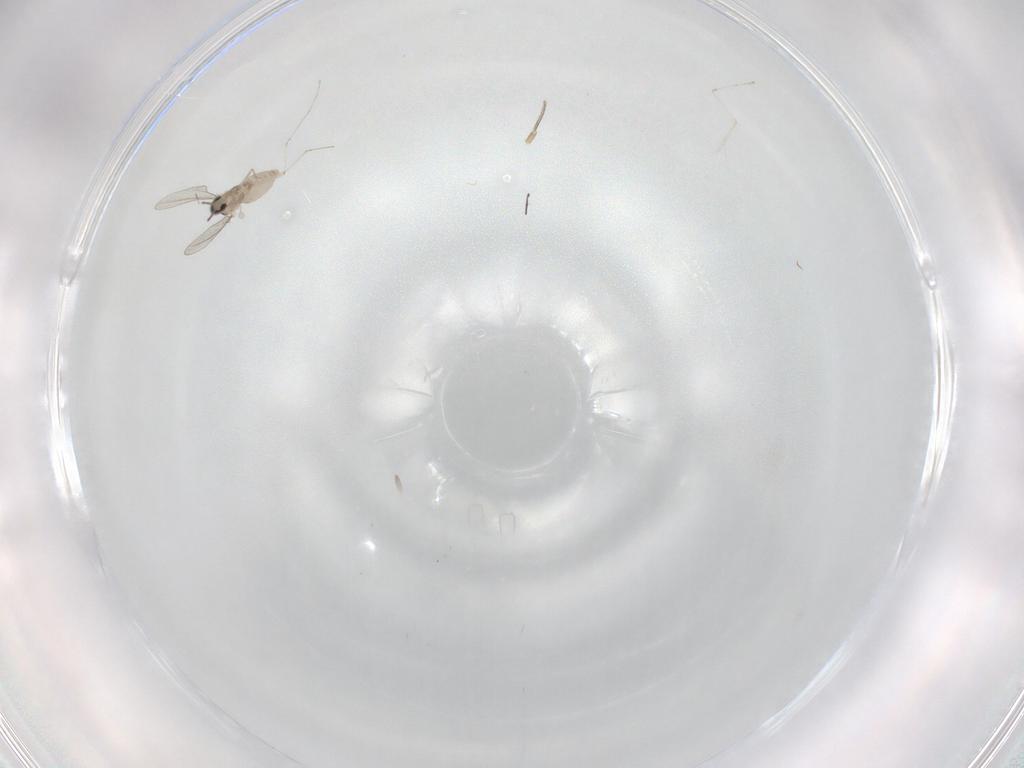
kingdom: Animalia
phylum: Arthropoda
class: Insecta
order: Diptera
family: Cecidomyiidae
